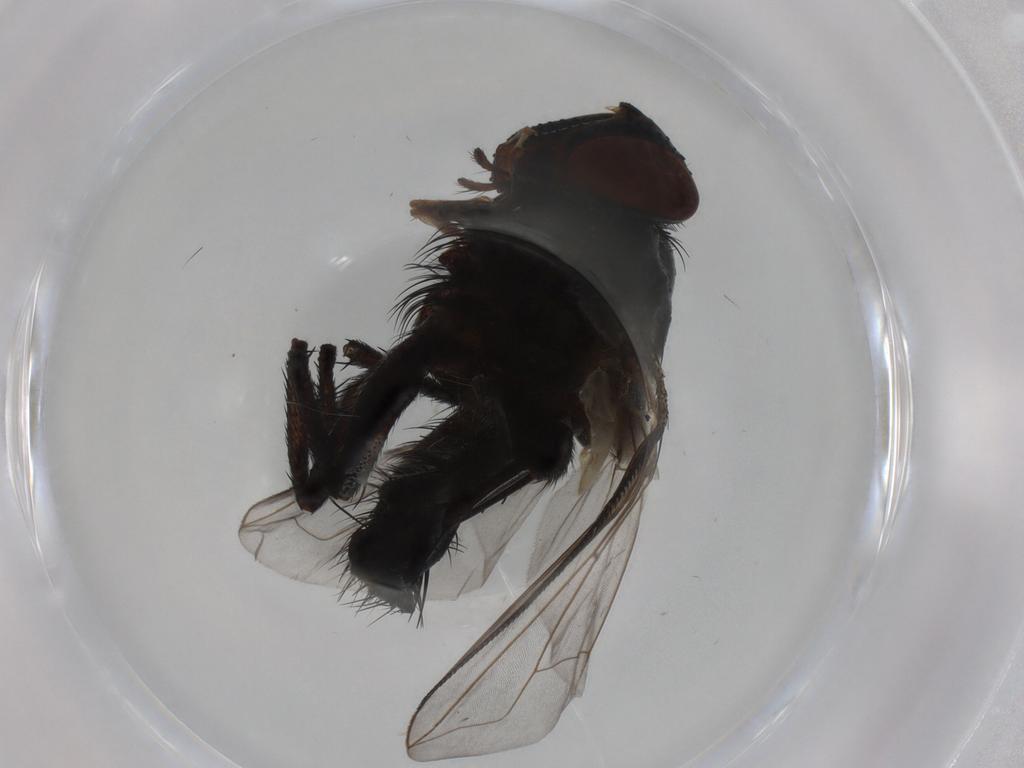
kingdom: Animalia
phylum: Arthropoda
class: Insecta
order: Diptera
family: Tachinidae
